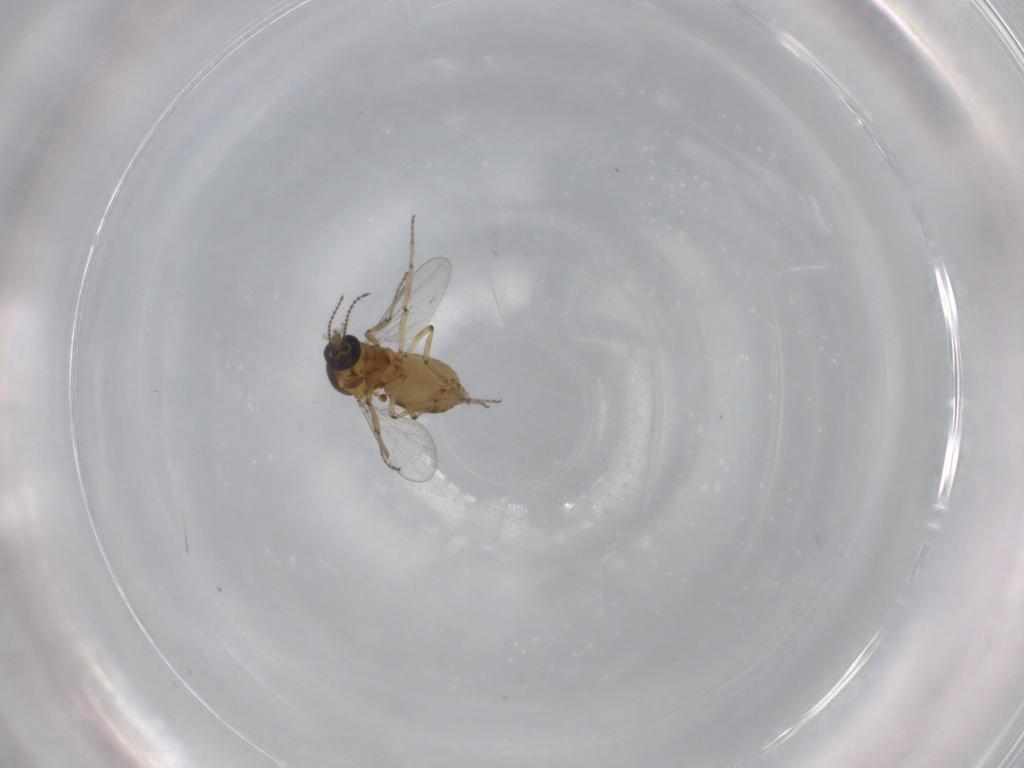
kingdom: Animalia
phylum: Arthropoda
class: Insecta
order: Diptera
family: Ceratopogonidae
